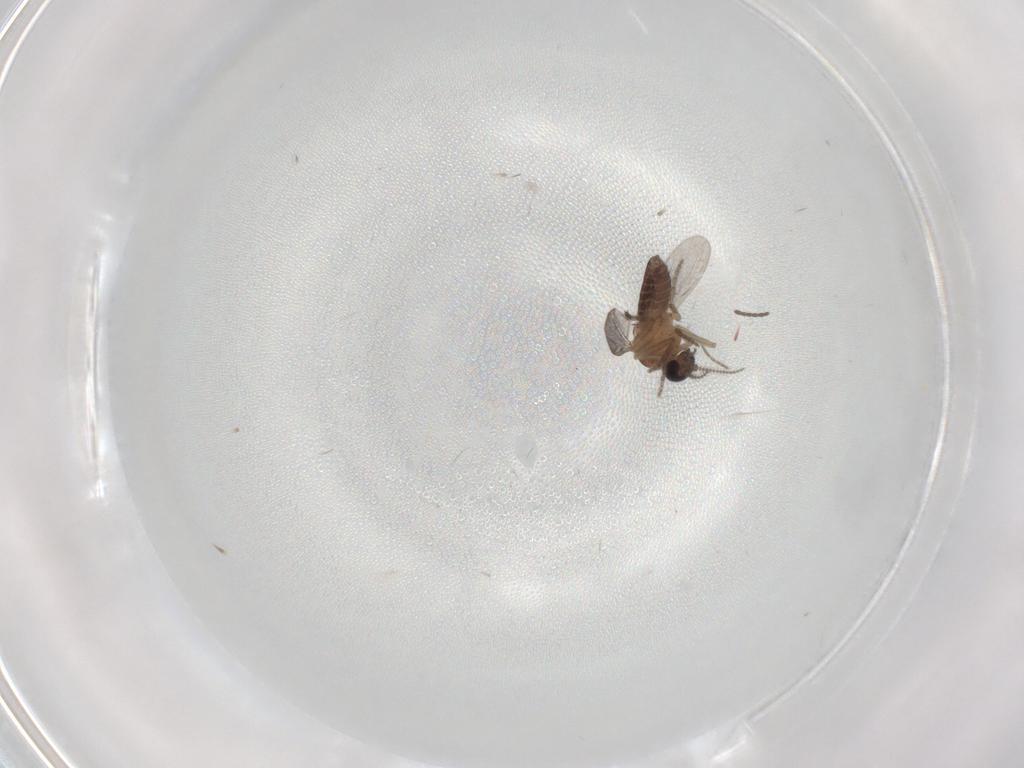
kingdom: Animalia
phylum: Arthropoda
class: Insecta
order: Diptera
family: Sciaridae
